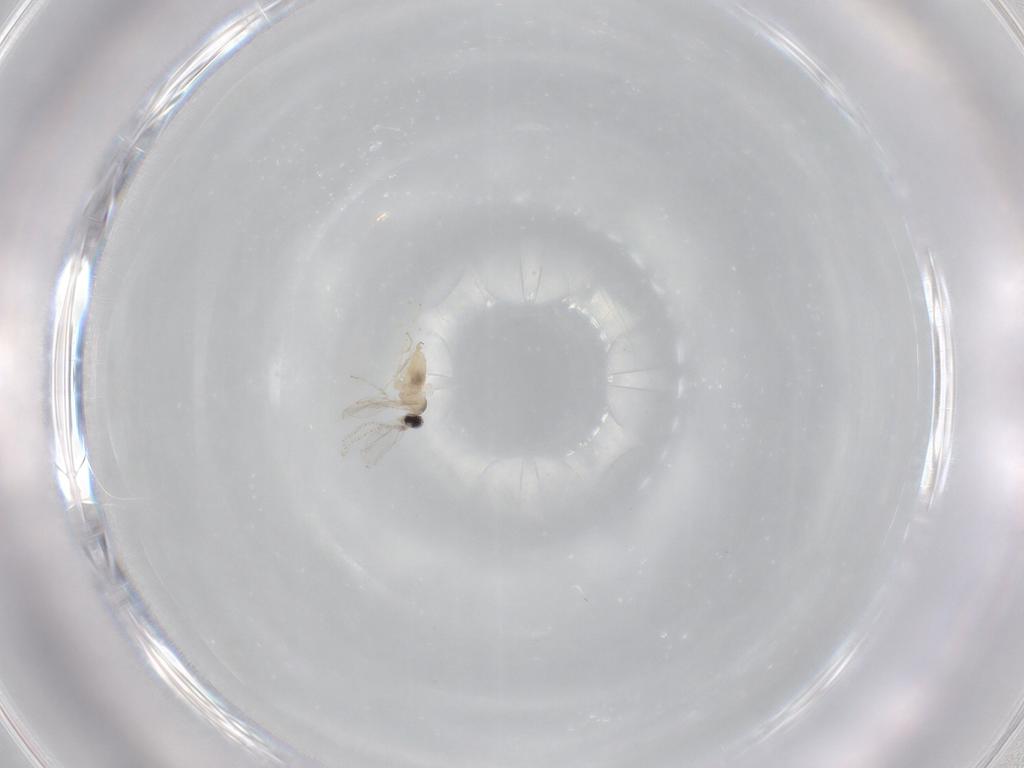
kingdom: Animalia
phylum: Arthropoda
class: Insecta
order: Diptera
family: Cecidomyiidae
